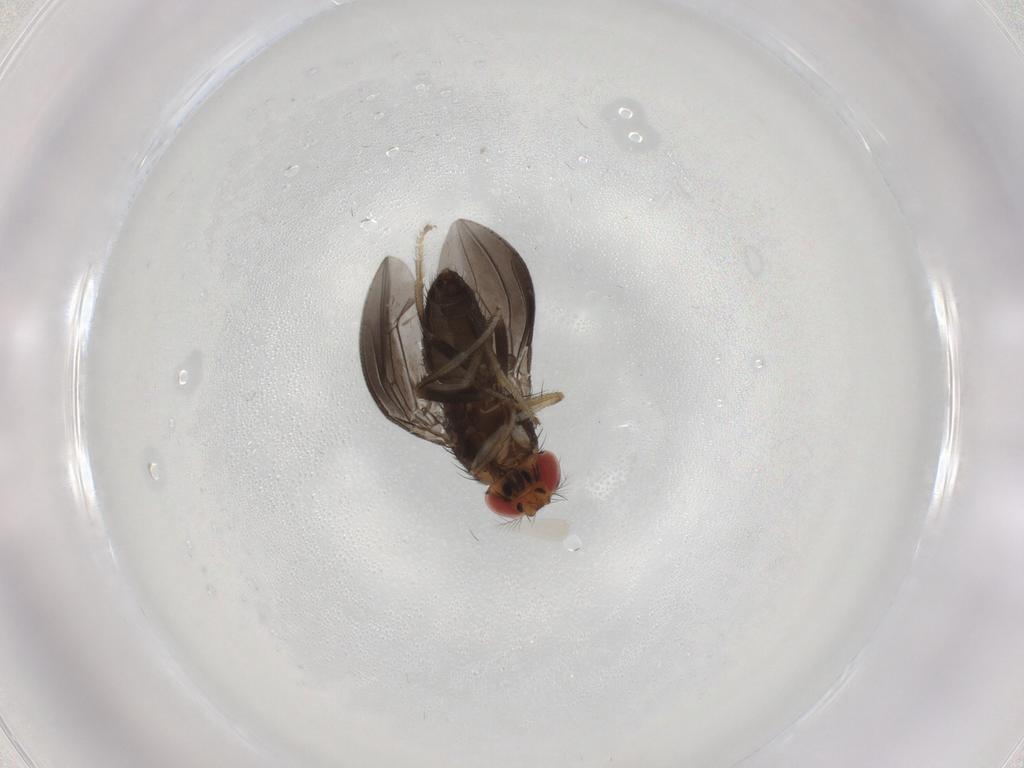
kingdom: Animalia
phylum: Arthropoda
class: Insecta
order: Diptera
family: Sciaridae
